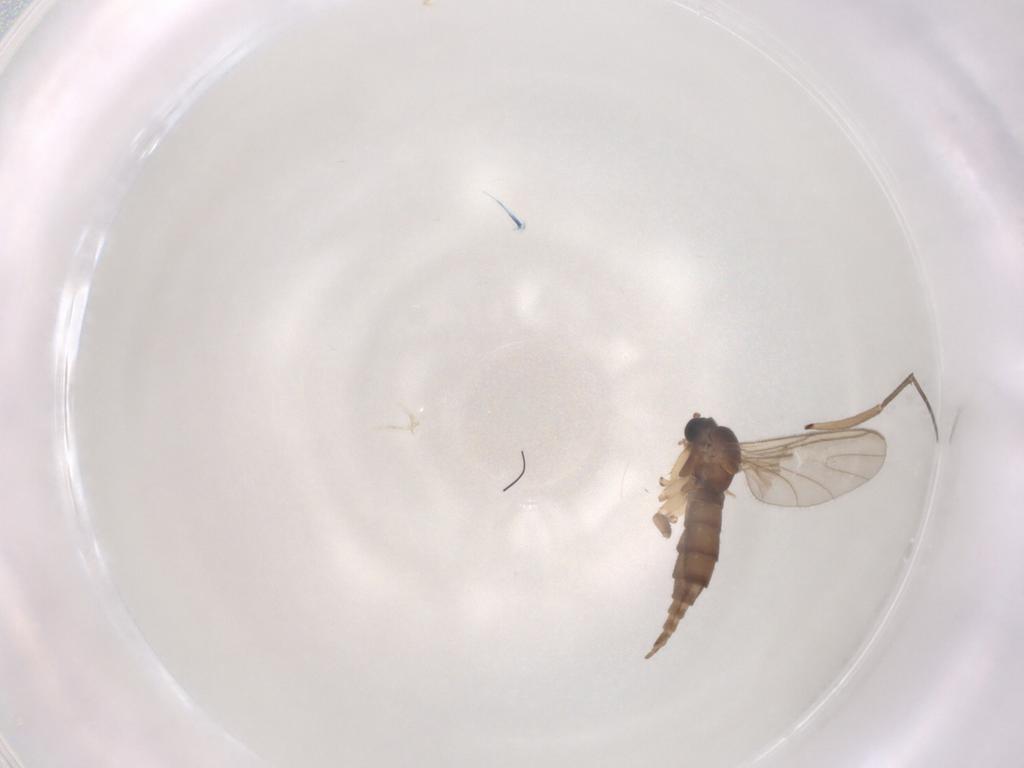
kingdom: Animalia
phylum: Arthropoda
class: Insecta
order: Diptera
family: Sciaridae
